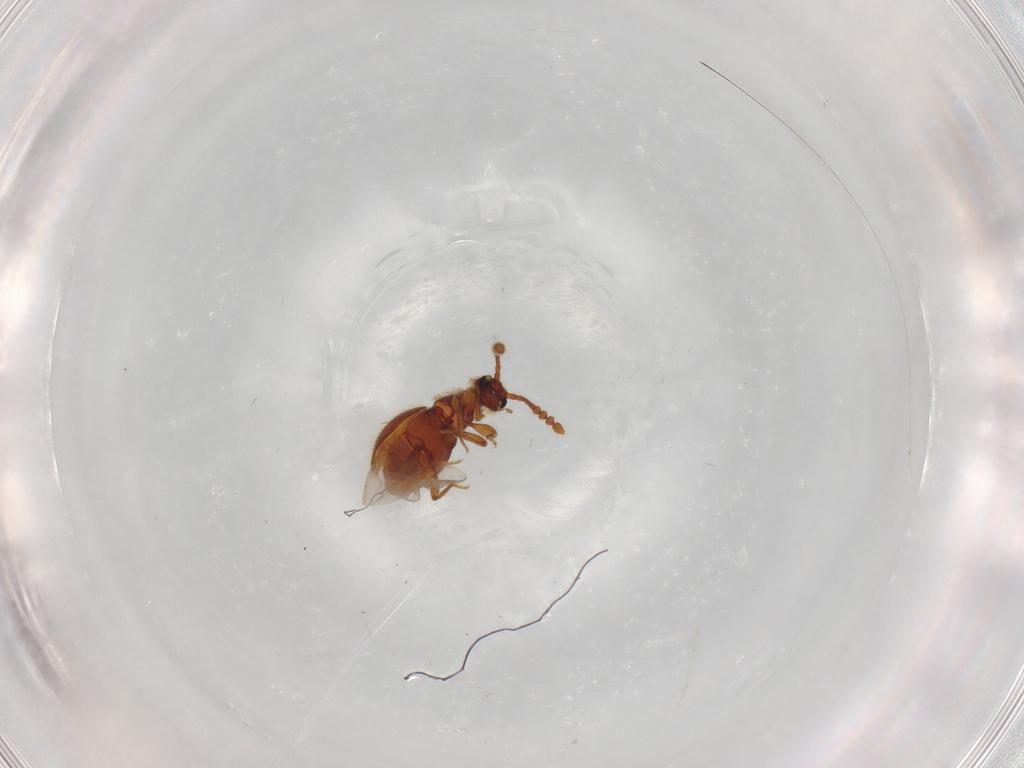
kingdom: Animalia
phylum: Arthropoda
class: Insecta
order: Coleoptera
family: Staphylinidae
